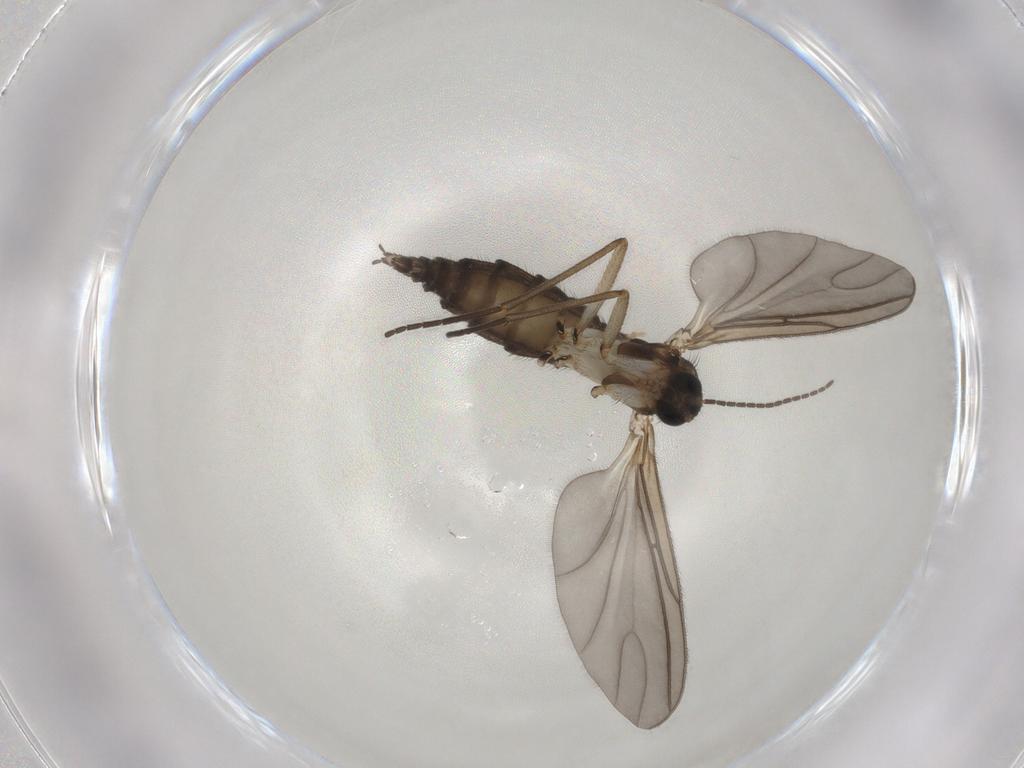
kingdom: Animalia
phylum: Arthropoda
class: Insecta
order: Diptera
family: Sciaridae
